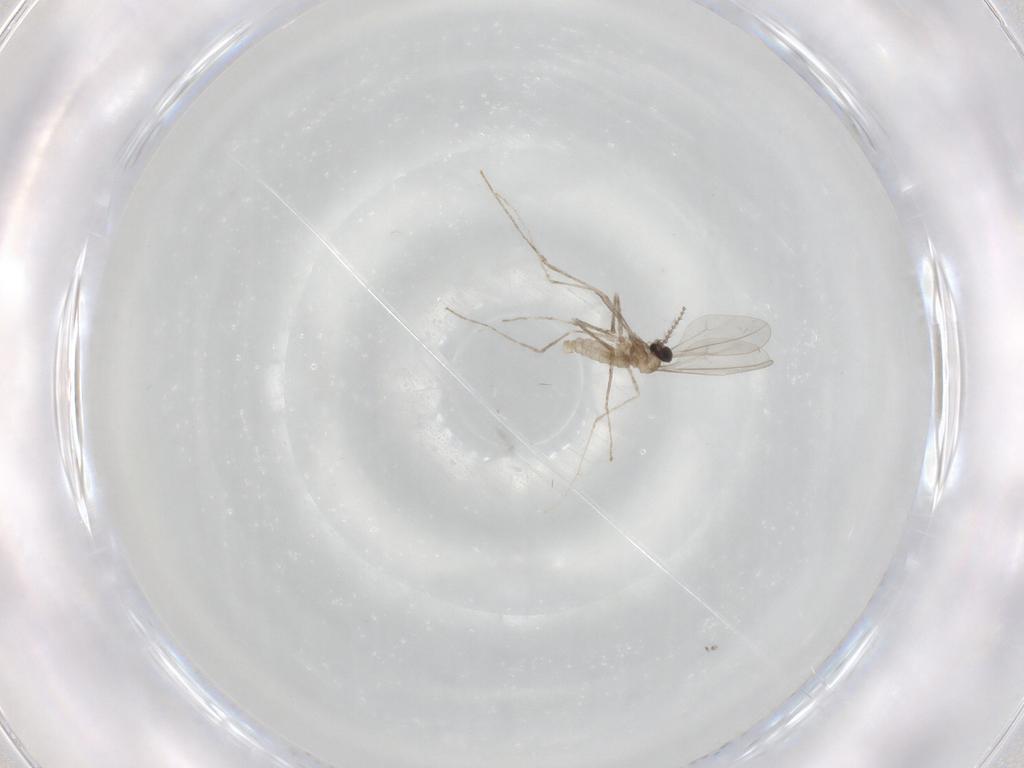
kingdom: Animalia
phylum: Arthropoda
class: Insecta
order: Diptera
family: Psychodidae
